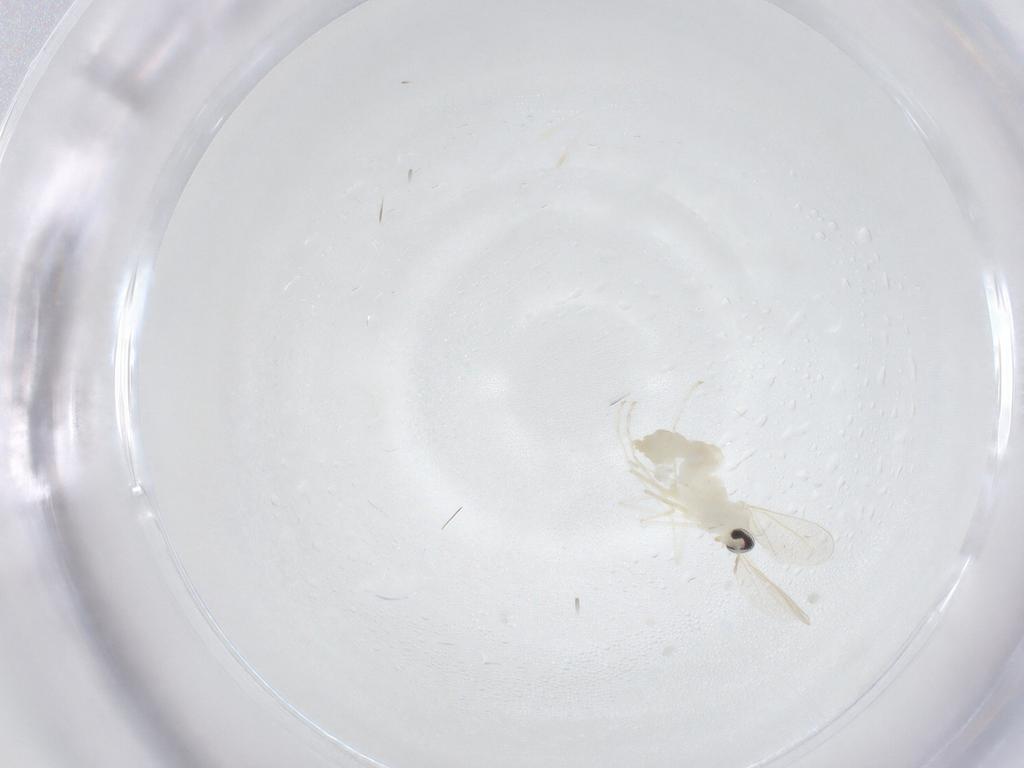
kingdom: Animalia
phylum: Arthropoda
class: Insecta
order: Diptera
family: Cecidomyiidae
